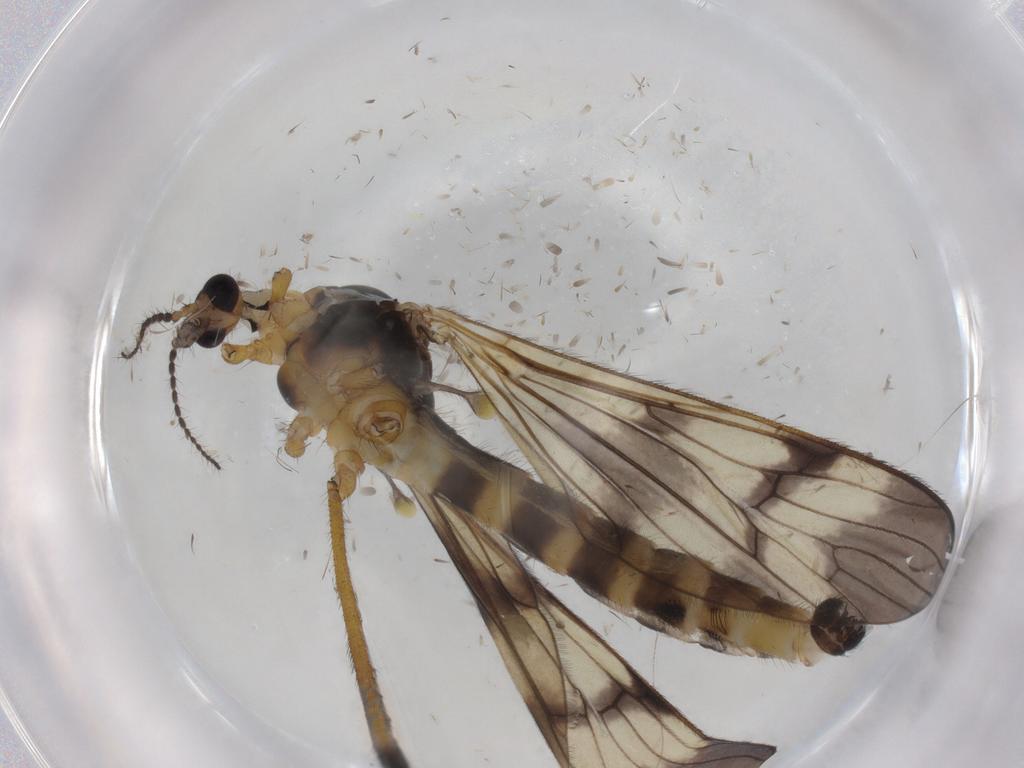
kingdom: Animalia
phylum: Arthropoda
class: Insecta
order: Diptera
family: Limoniidae
